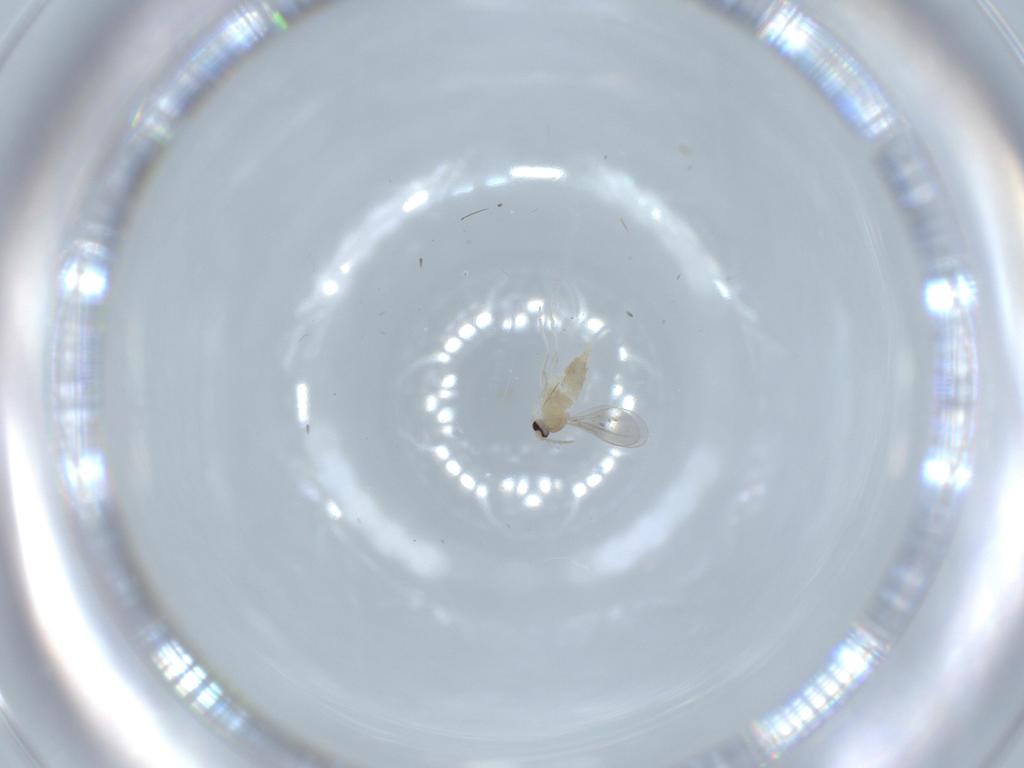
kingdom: Animalia
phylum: Arthropoda
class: Insecta
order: Diptera
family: Cecidomyiidae
